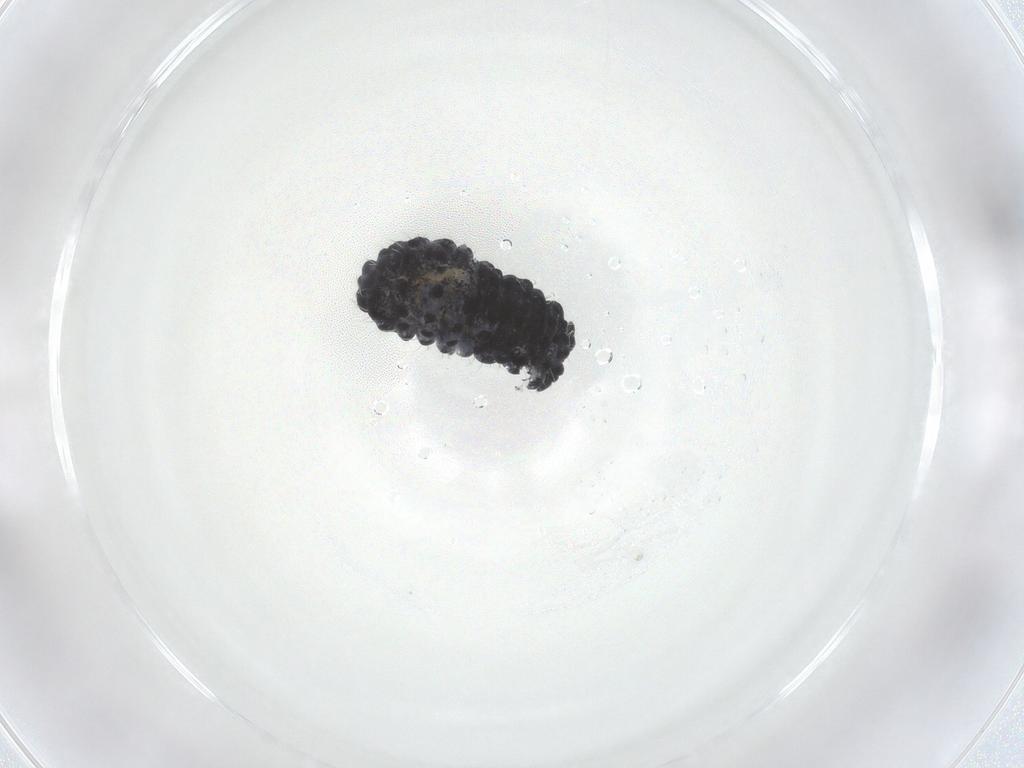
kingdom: Animalia
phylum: Arthropoda
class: Collembola
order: Poduromorpha
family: Neanuridae
